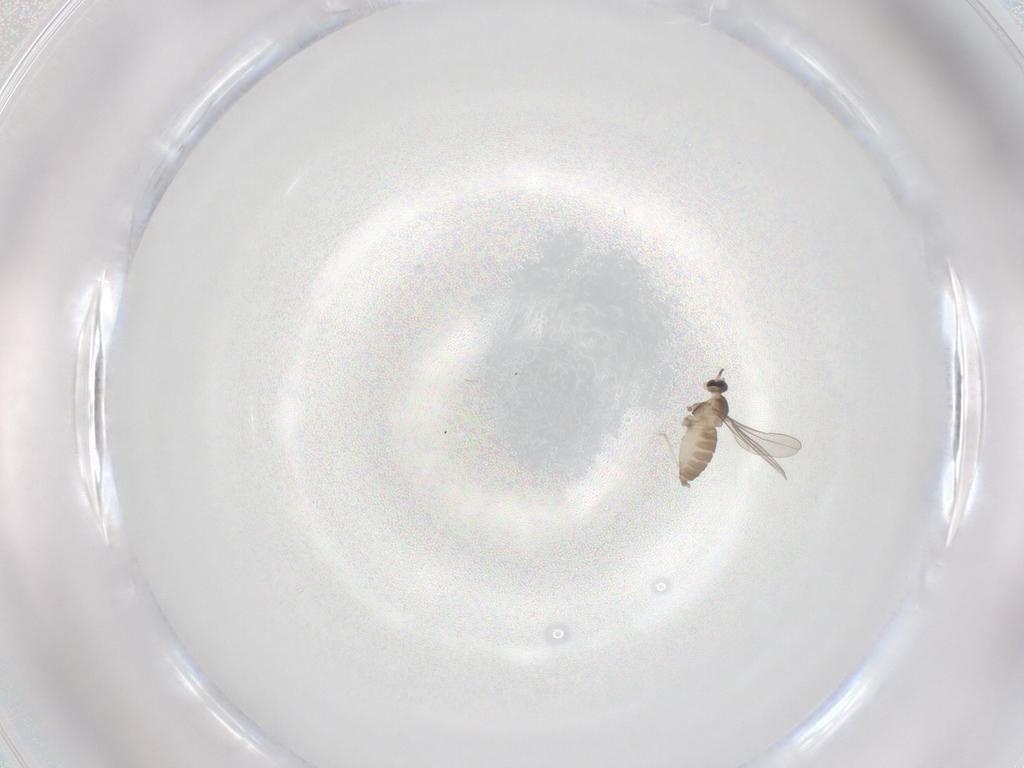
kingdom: Animalia
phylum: Arthropoda
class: Insecta
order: Diptera
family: Cecidomyiidae
